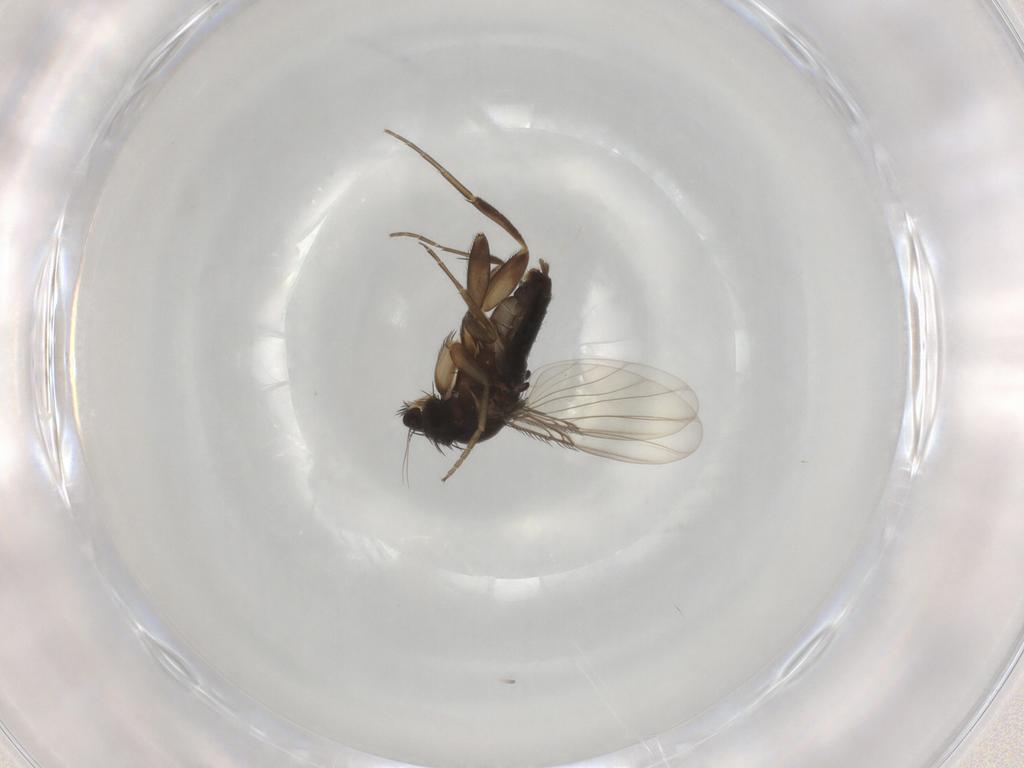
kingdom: Animalia
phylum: Arthropoda
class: Insecta
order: Diptera
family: Phoridae
